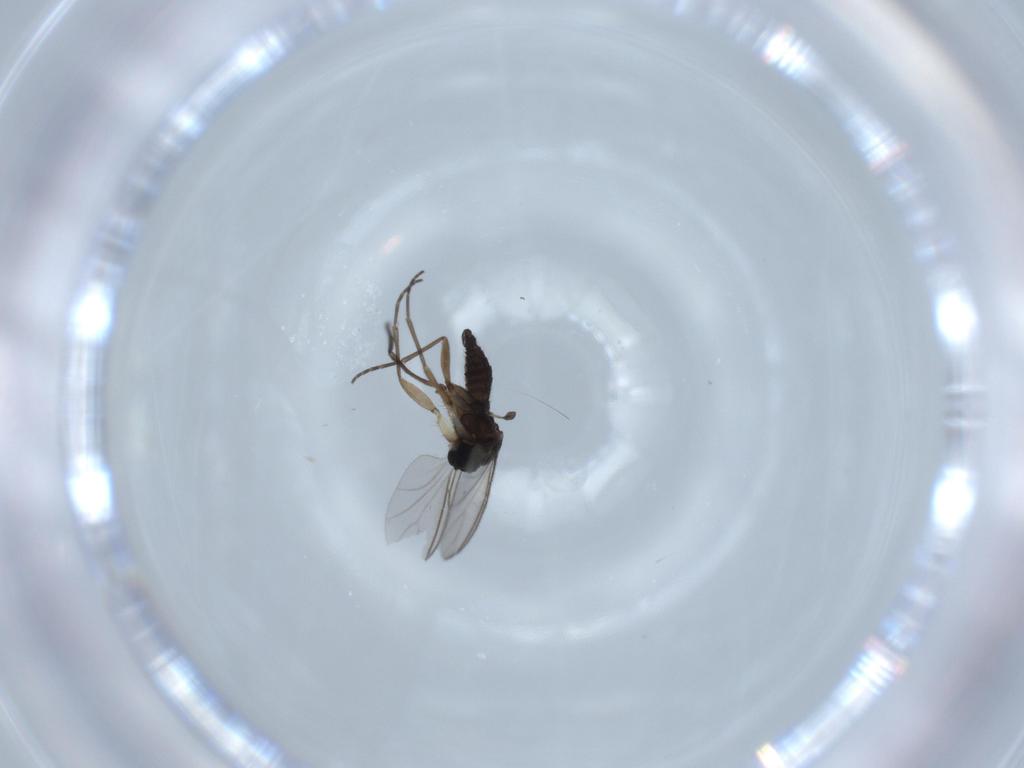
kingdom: Animalia
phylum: Arthropoda
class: Insecta
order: Diptera
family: Sciaridae
